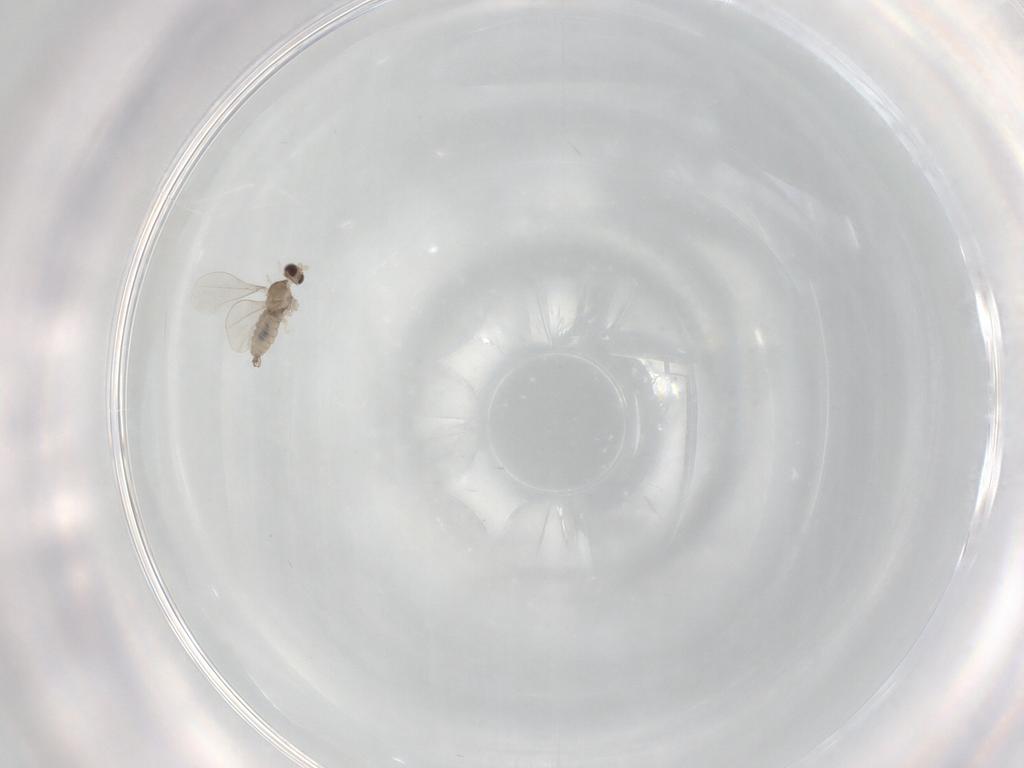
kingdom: Animalia
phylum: Arthropoda
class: Insecta
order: Diptera
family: Cecidomyiidae
